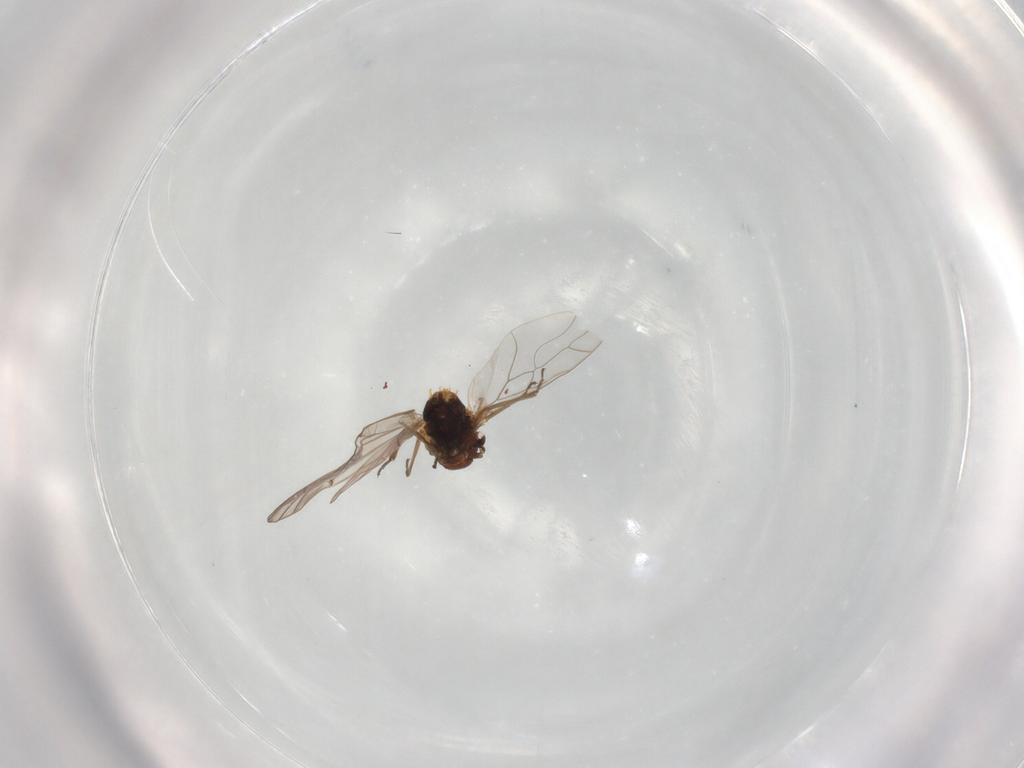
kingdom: Animalia
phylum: Arthropoda
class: Insecta
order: Psocodea
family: Lachesillidae
